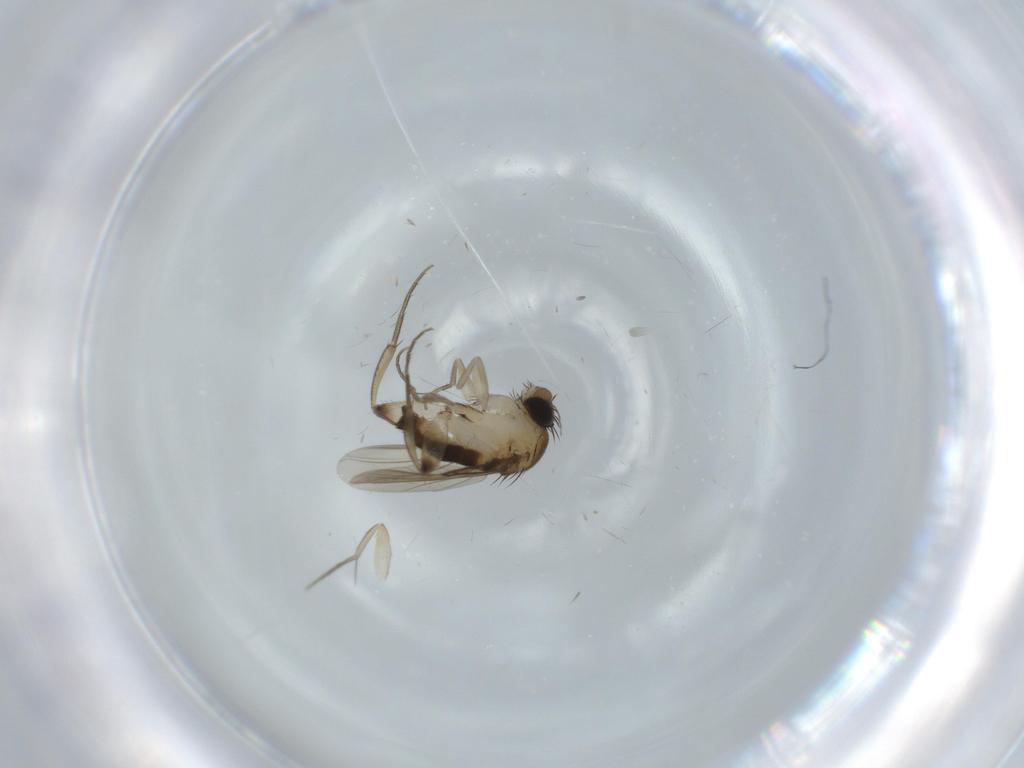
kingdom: Animalia
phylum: Arthropoda
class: Insecta
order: Diptera
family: Phoridae
